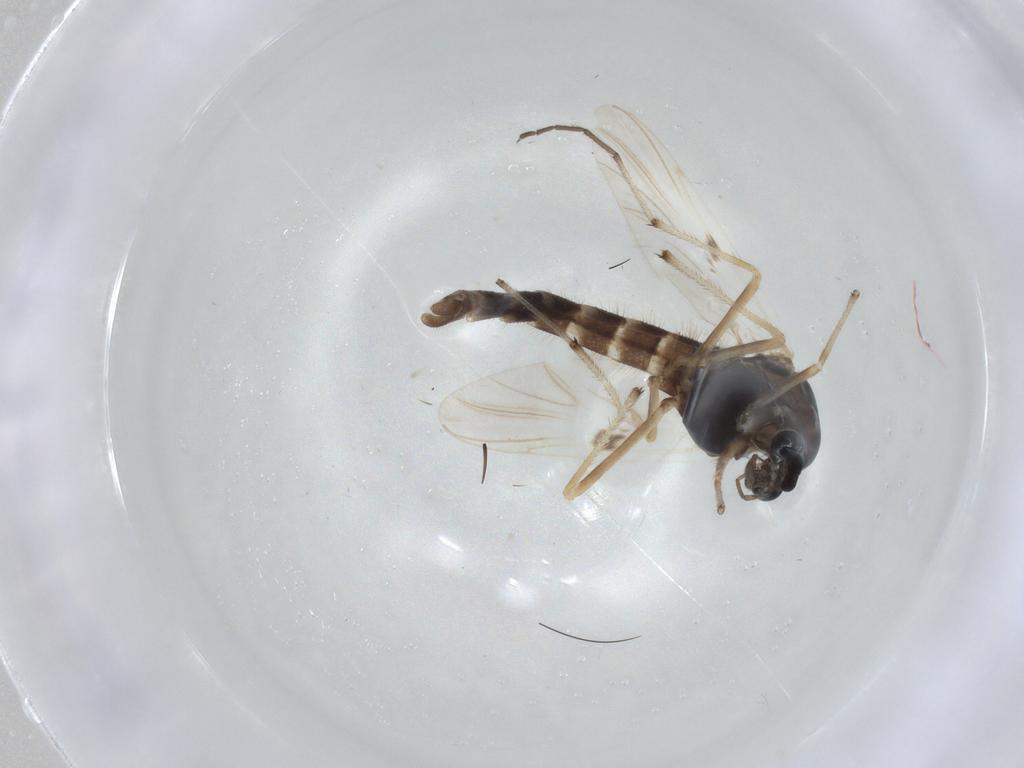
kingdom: Animalia
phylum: Arthropoda
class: Insecta
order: Diptera
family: Chironomidae
